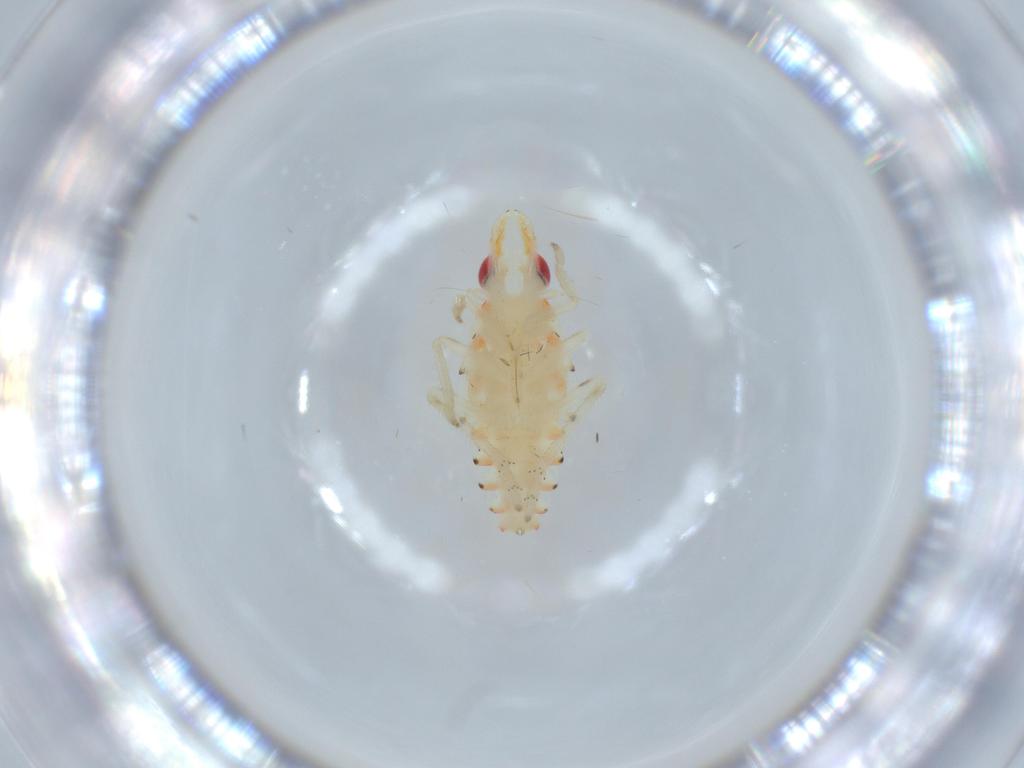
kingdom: Animalia
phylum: Arthropoda
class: Insecta
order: Hemiptera
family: Tropiduchidae
